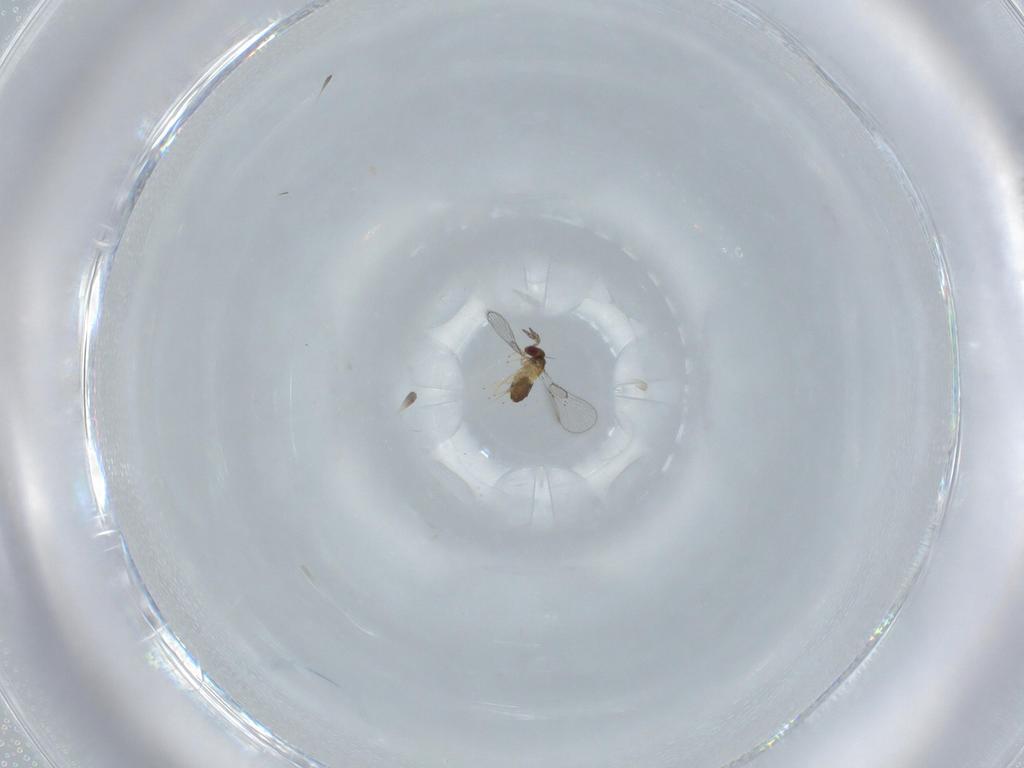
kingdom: Animalia
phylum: Arthropoda
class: Insecta
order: Hymenoptera
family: Trichogrammatidae
